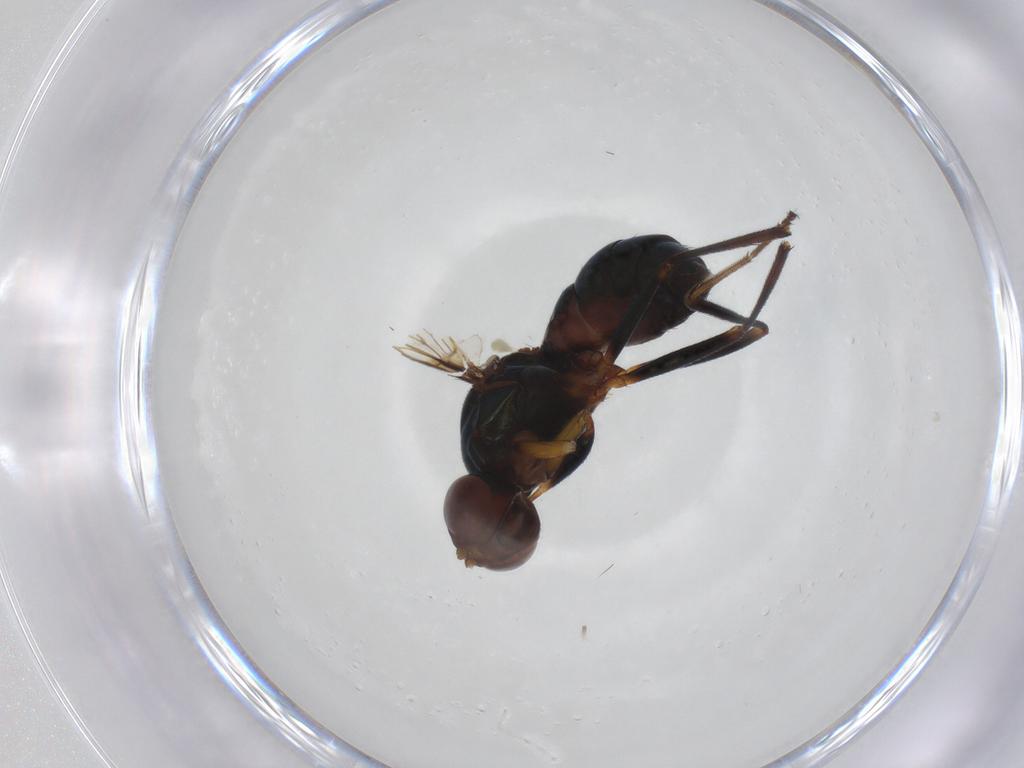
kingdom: Animalia
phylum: Arthropoda
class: Insecta
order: Diptera
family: Sepsidae
